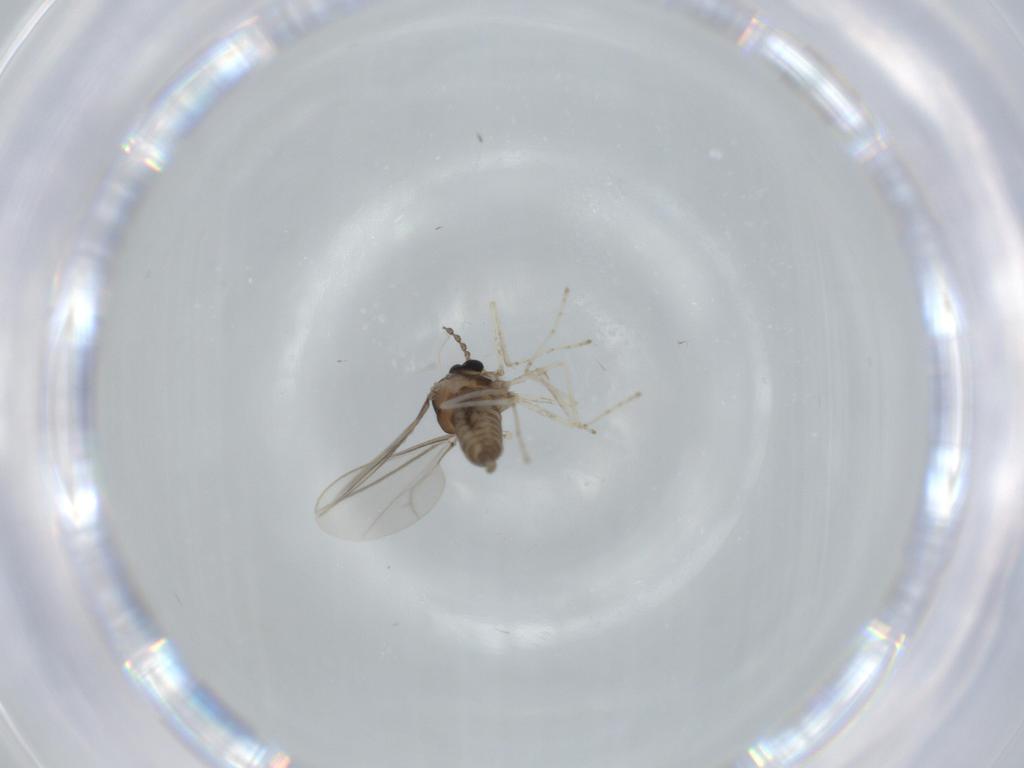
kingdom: Animalia
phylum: Arthropoda
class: Insecta
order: Diptera
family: Cecidomyiidae
